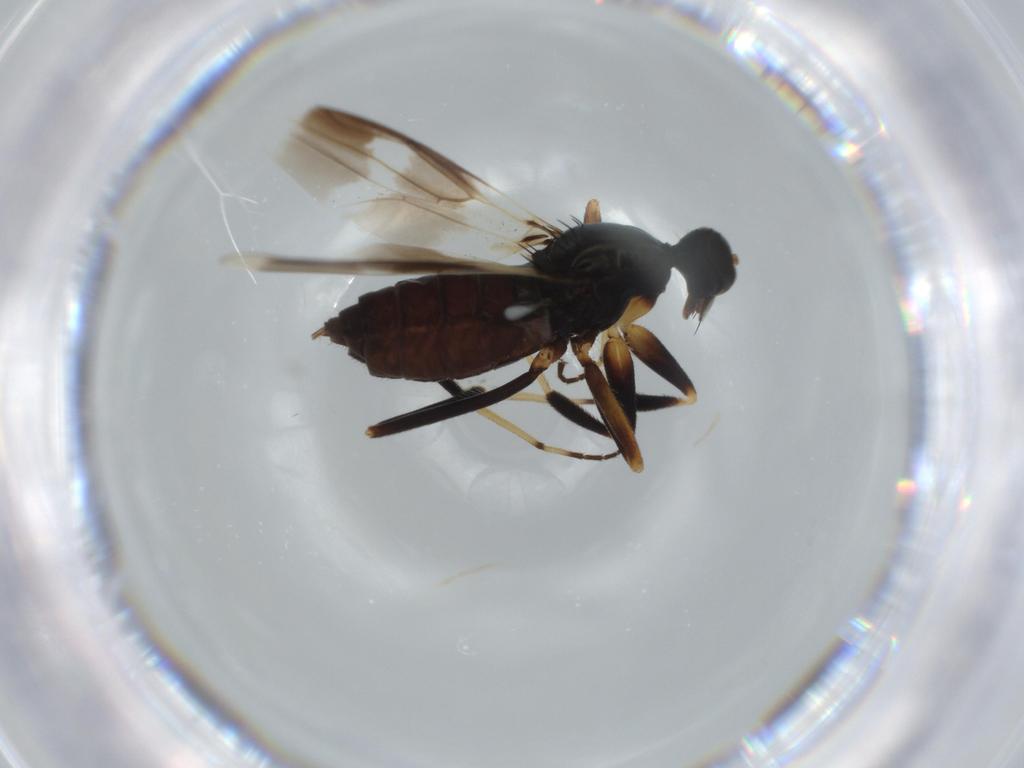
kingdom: Animalia
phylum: Arthropoda
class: Insecta
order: Diptera
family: Hybotidae
